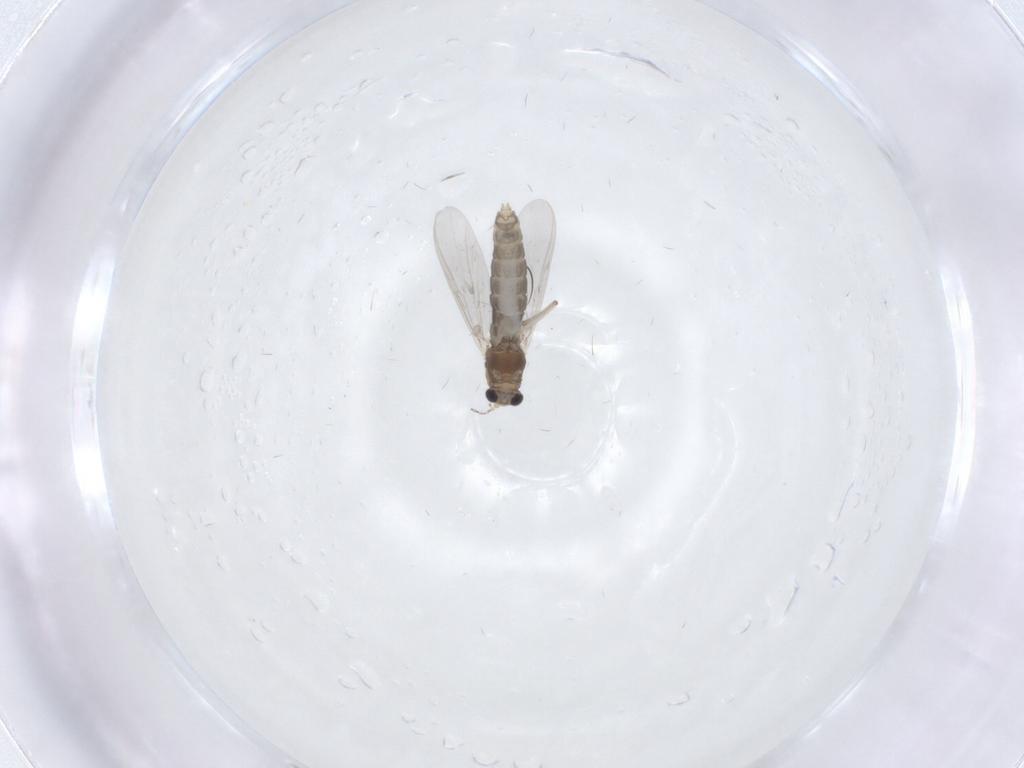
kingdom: Animalia
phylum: Arthropoda
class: Insecta
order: Diptera
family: Chironomidae
